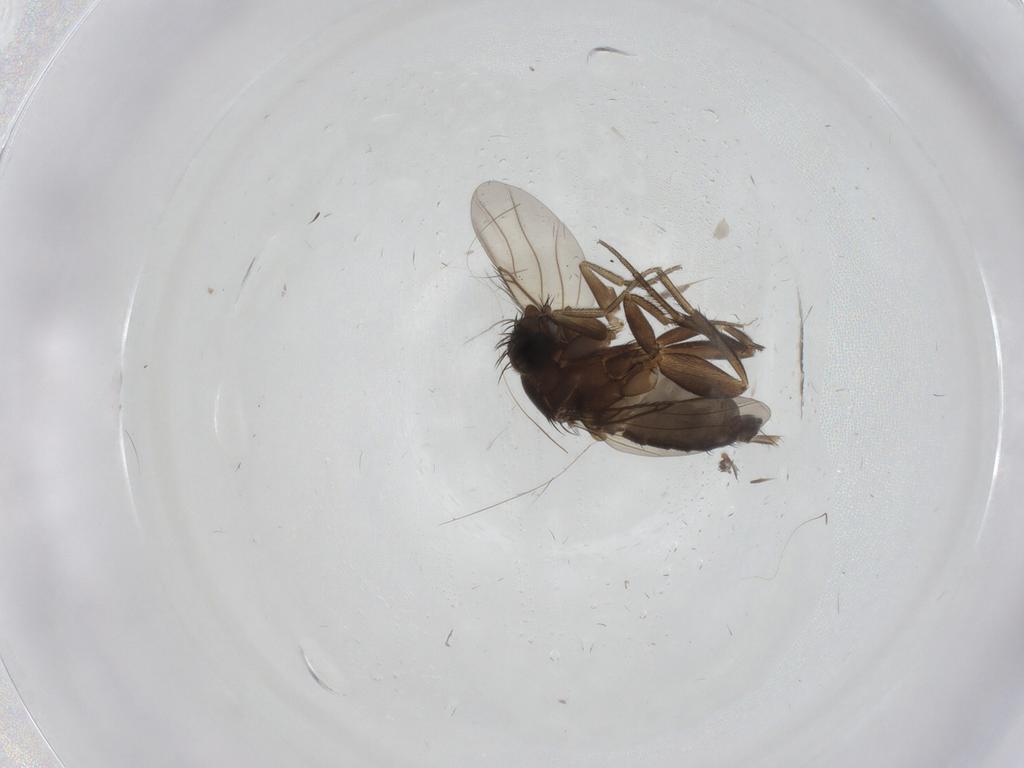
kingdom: Animalia
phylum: Arthropoda
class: Insecta
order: Diptera
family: Phoridae
